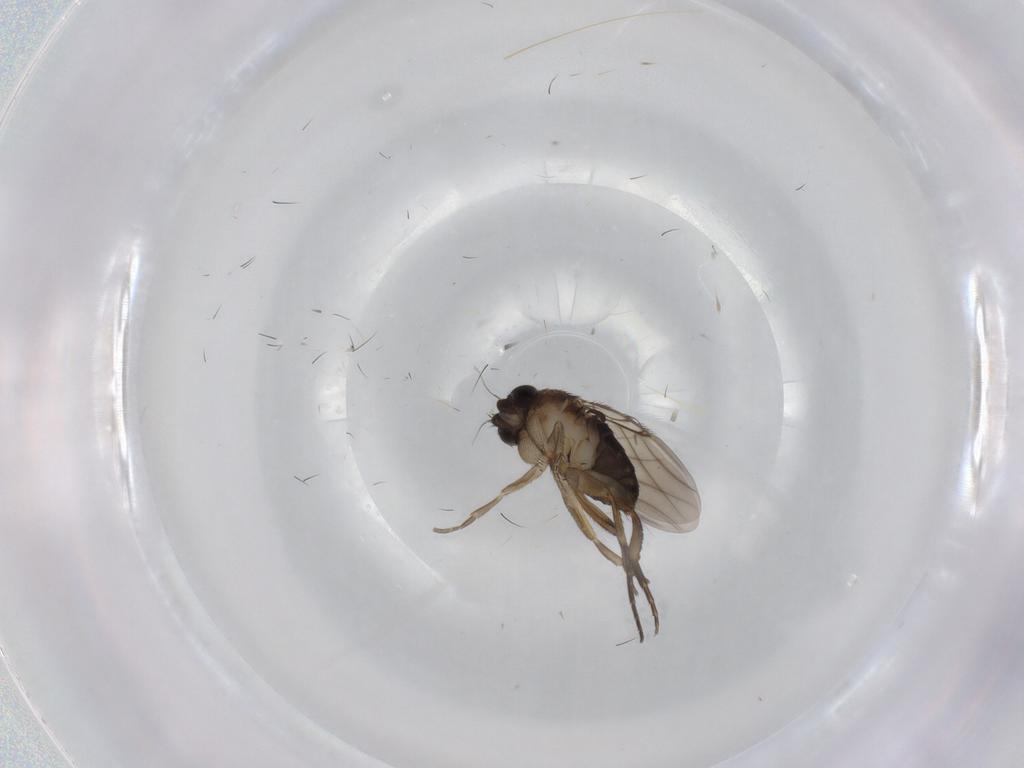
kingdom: Animalia
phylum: Arthropoda
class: Insecta
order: Diptera
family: Phoridae
